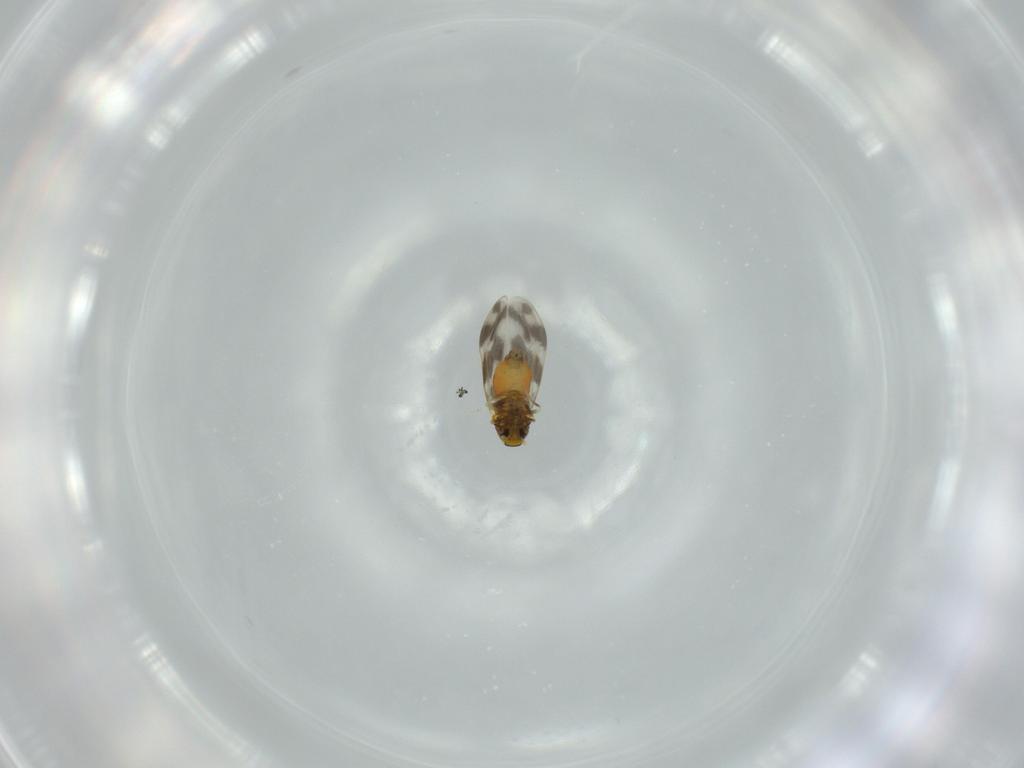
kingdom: Animalia
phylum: Arthropoda
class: Insecta
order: Hemiptera
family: Aleyrodidae
